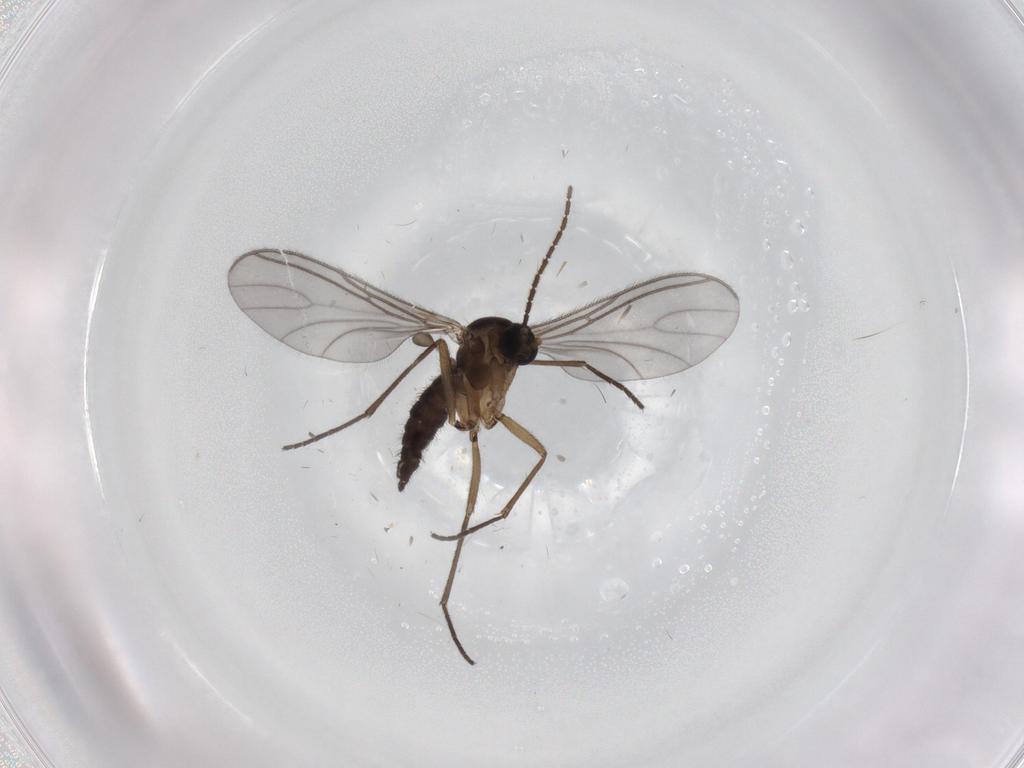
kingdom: Animalia
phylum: Arthropoda
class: Insecta
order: Diptera
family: Sciaridae
